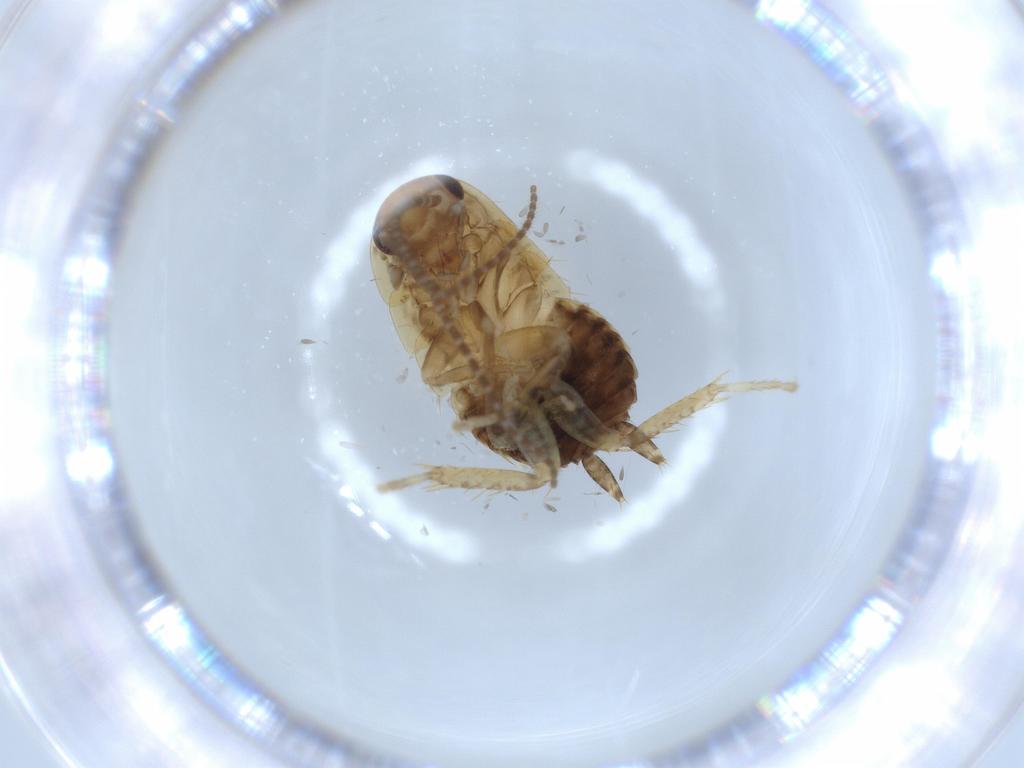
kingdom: Animalia
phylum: Arthropoda
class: Insecta
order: Blattodea
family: Ectobiidae
